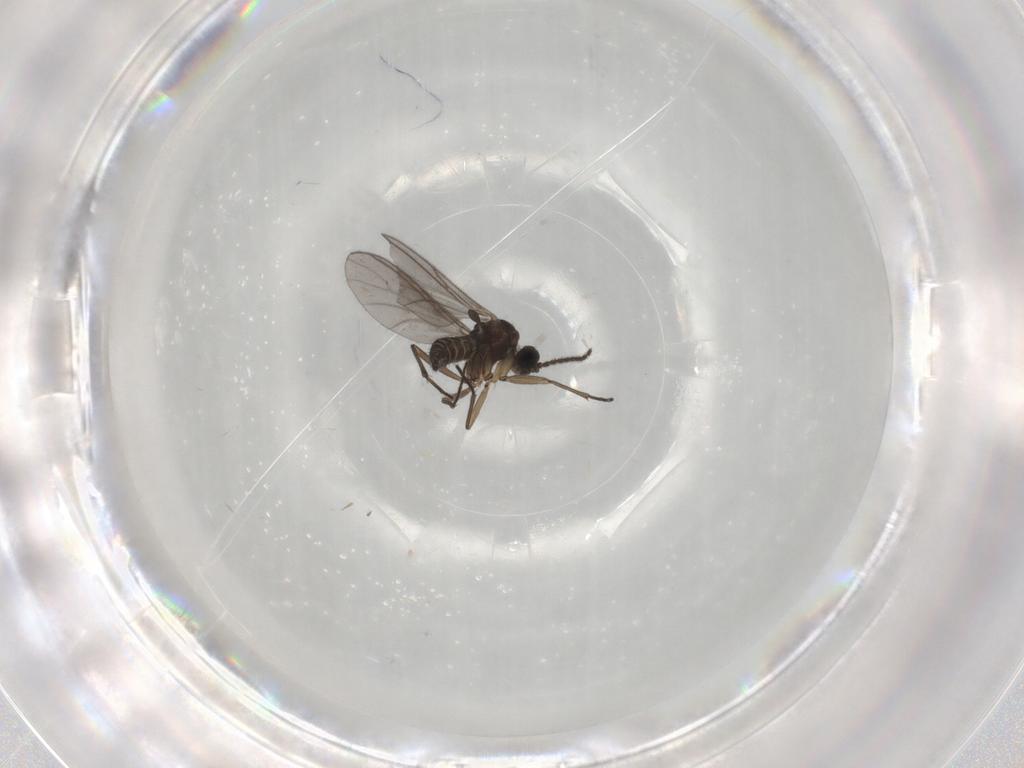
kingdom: Animalia
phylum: Arthropoda
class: Insecta
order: Diptera
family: Sciaridae
